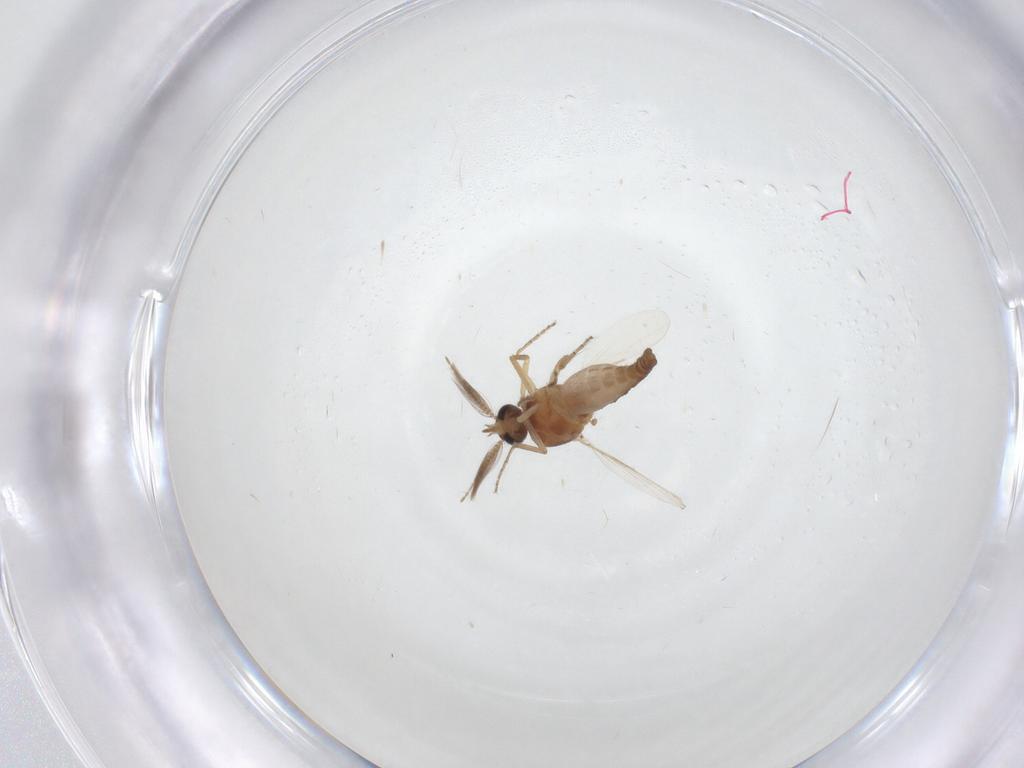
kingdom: Animalia
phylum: Arthropoda
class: Insecta
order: Diptera
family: Ceratopogonidae
